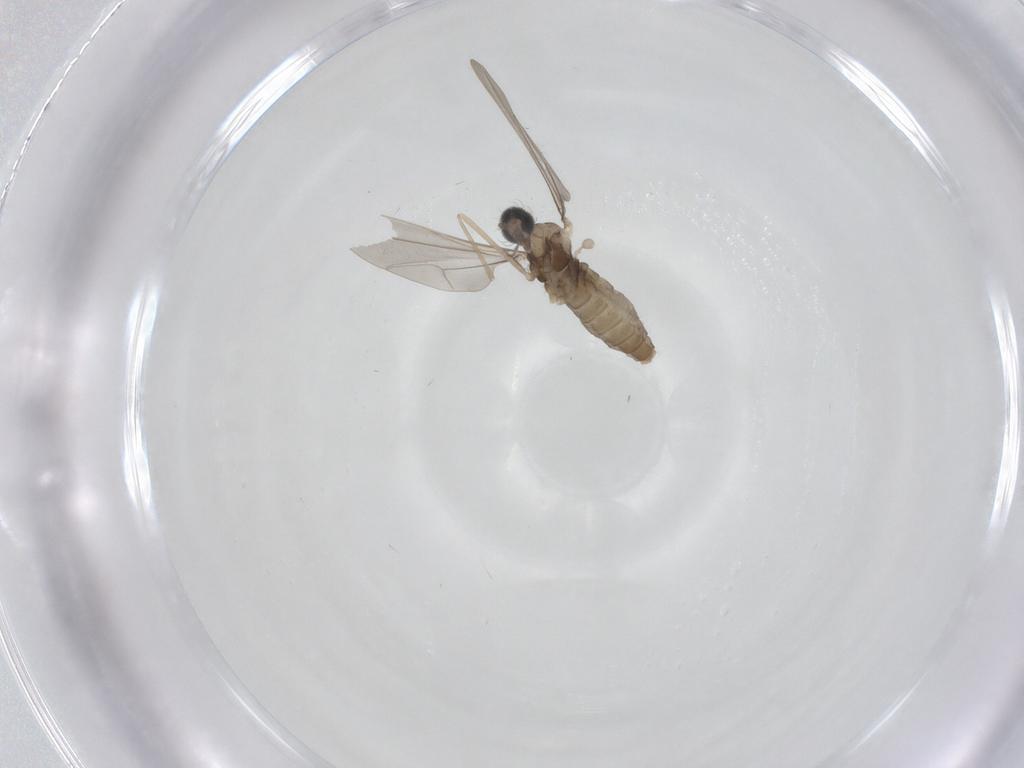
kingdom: Animalia
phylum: Arthropoda
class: Insecta
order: Diptera
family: Cecidomyiidae
